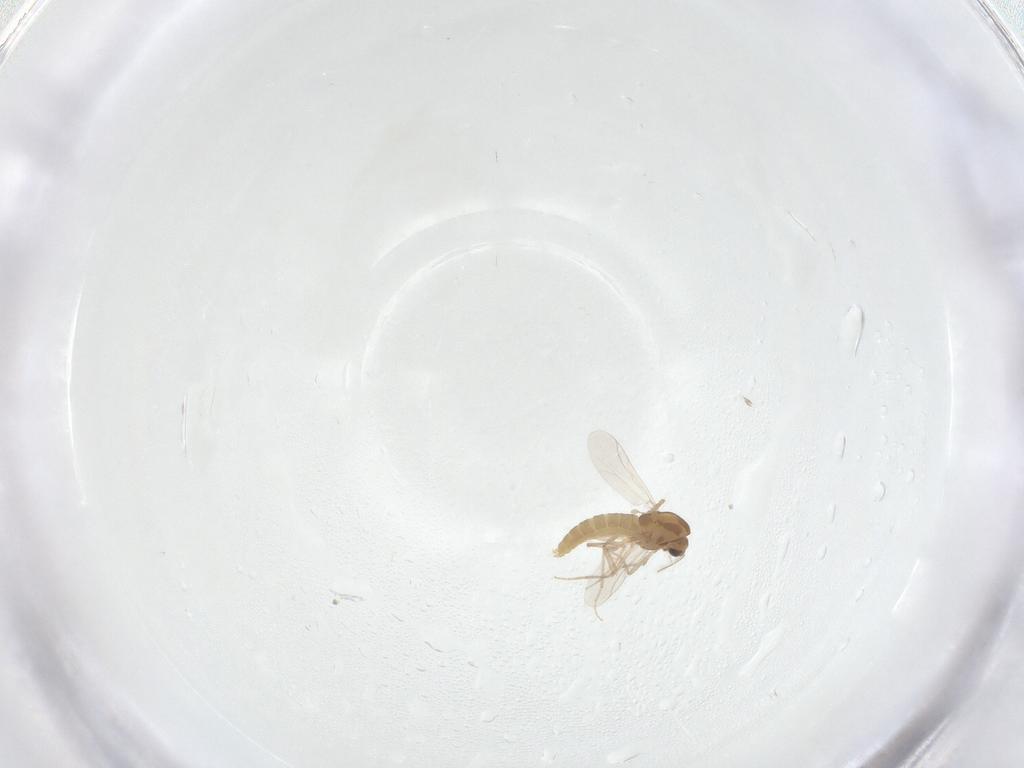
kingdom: Animalia
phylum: Arthropoda
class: Insecta
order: Diptera
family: Chironomidae
